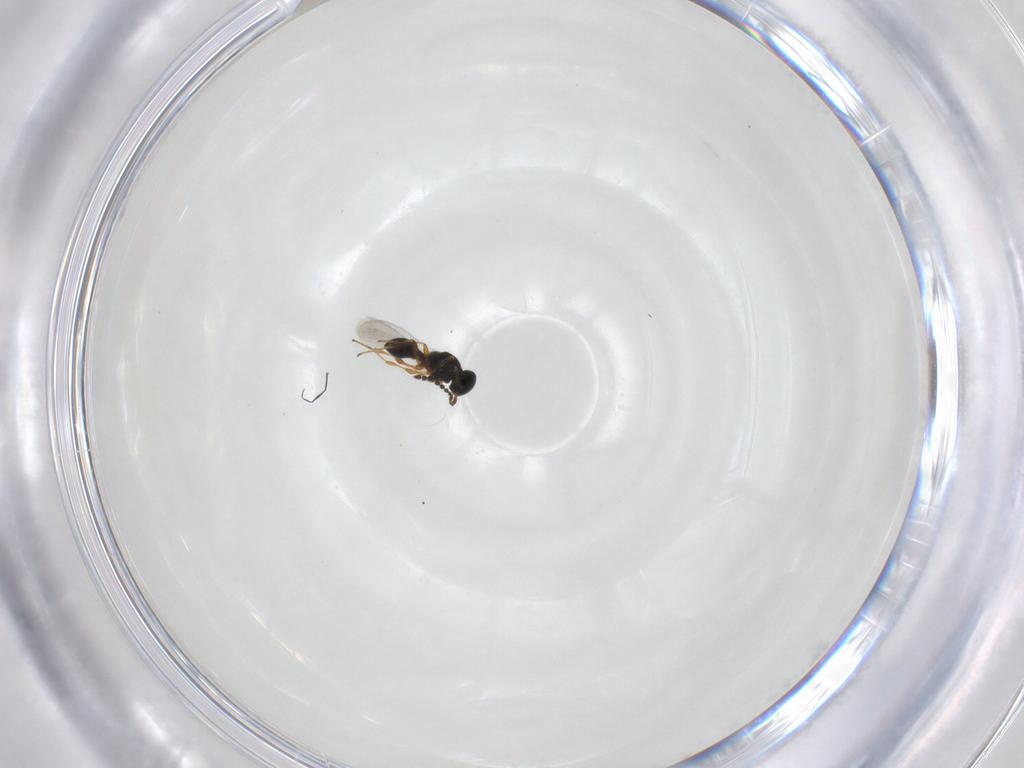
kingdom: Animalia
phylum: Arthropoda
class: Insecta
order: Hymenoptera
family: Platygastridae
